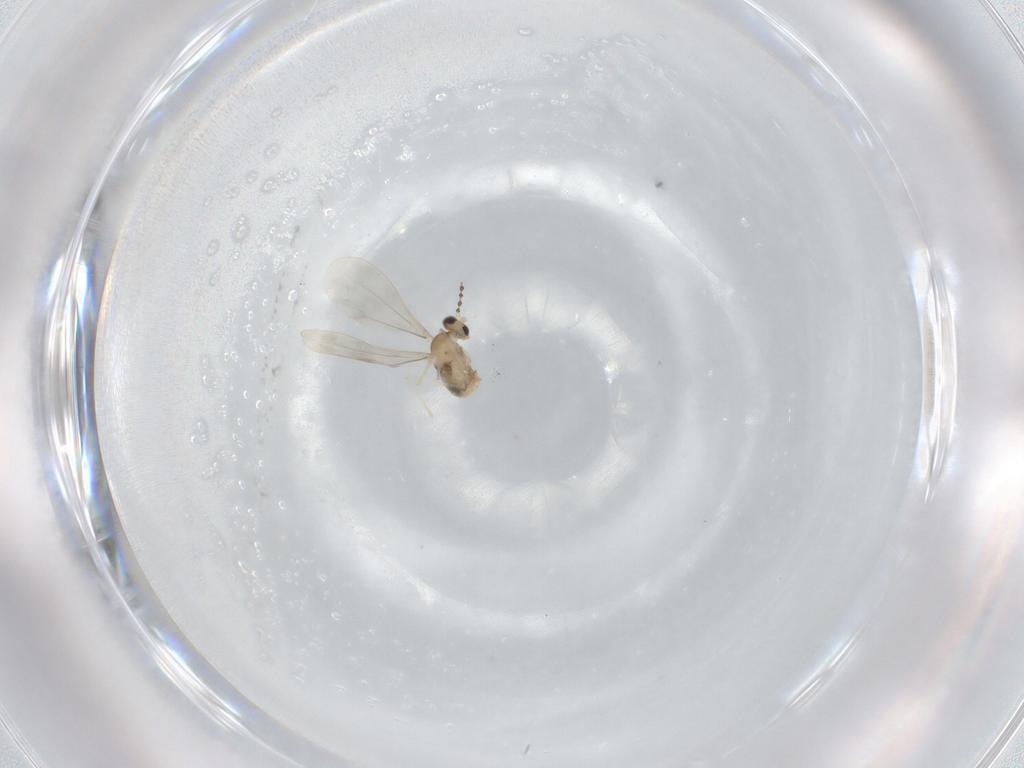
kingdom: Animalia
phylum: Arthropoda
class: Insecta
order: Diptera
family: Cecidomyiidae
